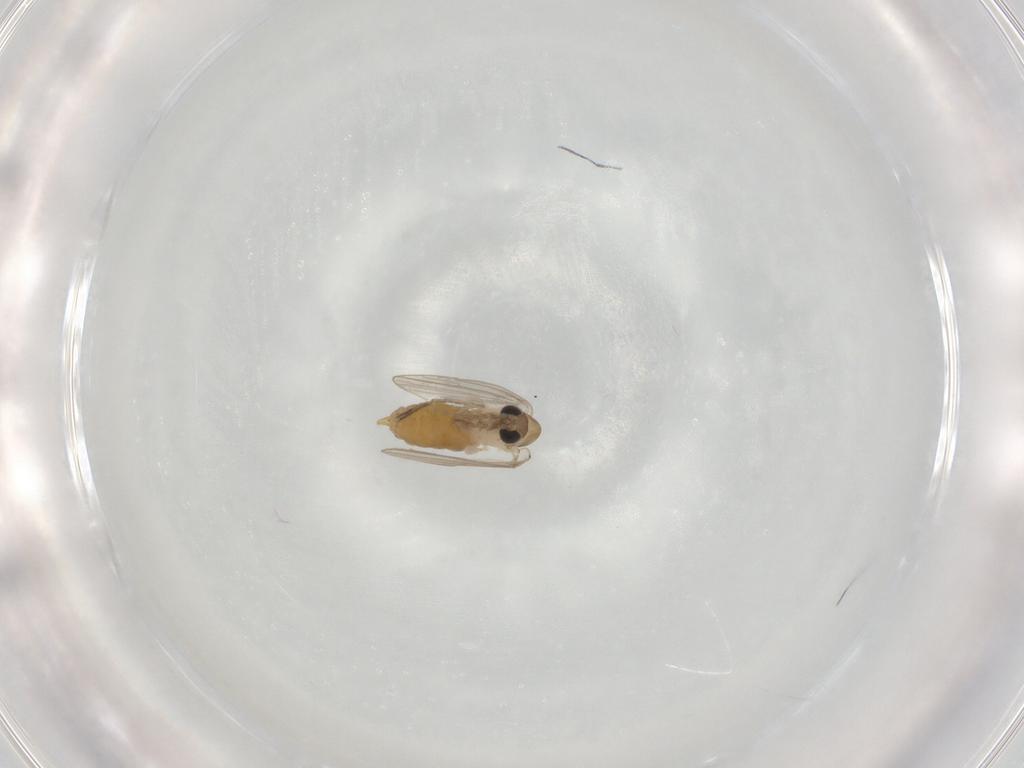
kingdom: Animalia
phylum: Arthropoda
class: Insecta
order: Diptera
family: Psychodidae
